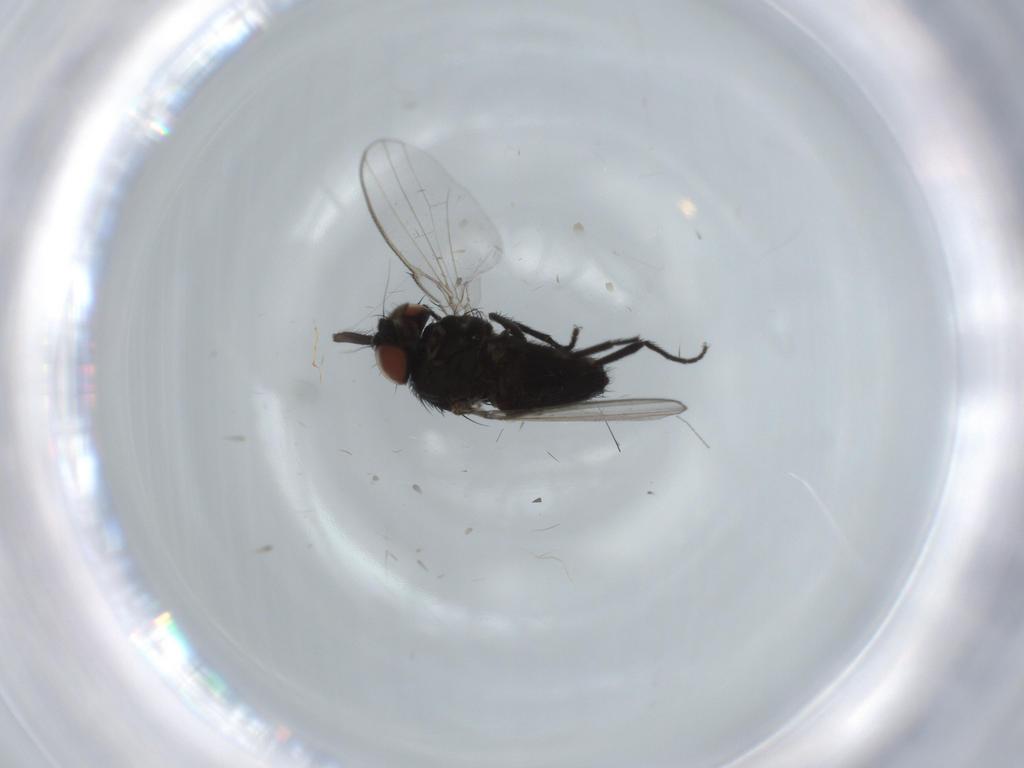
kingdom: Animalia
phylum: Arthropoda
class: Insecta
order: Diptera
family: Milichiidae
